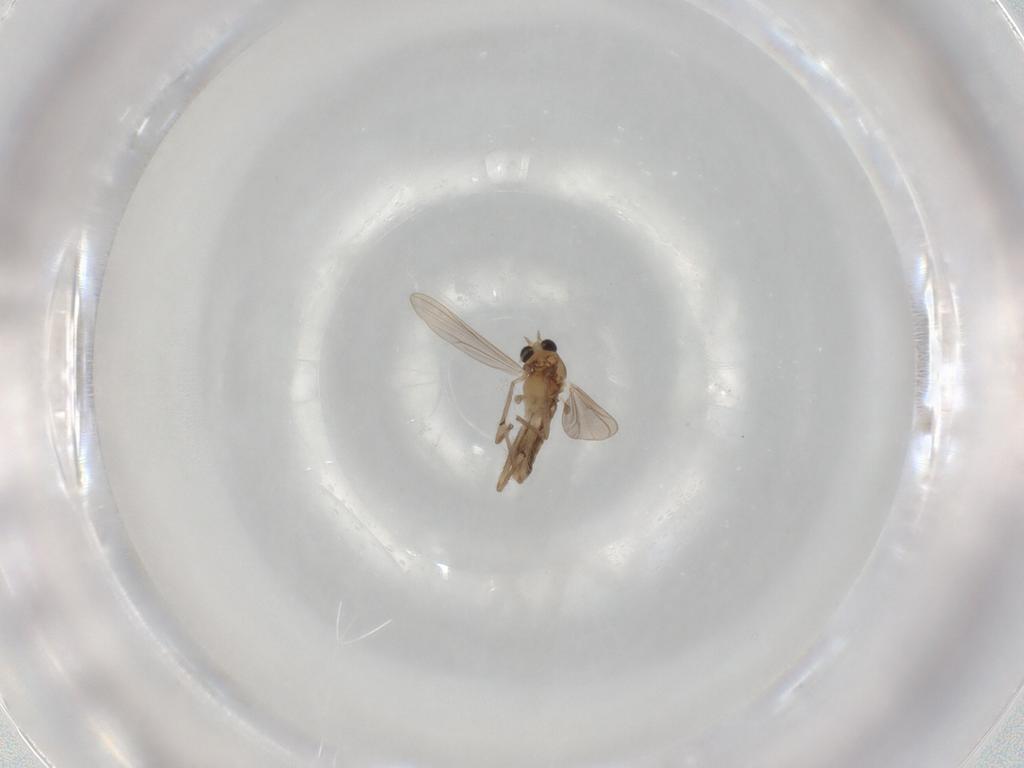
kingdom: Animalia
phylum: Arthropoda
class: Insecta
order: Diptera
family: Chironomidae
